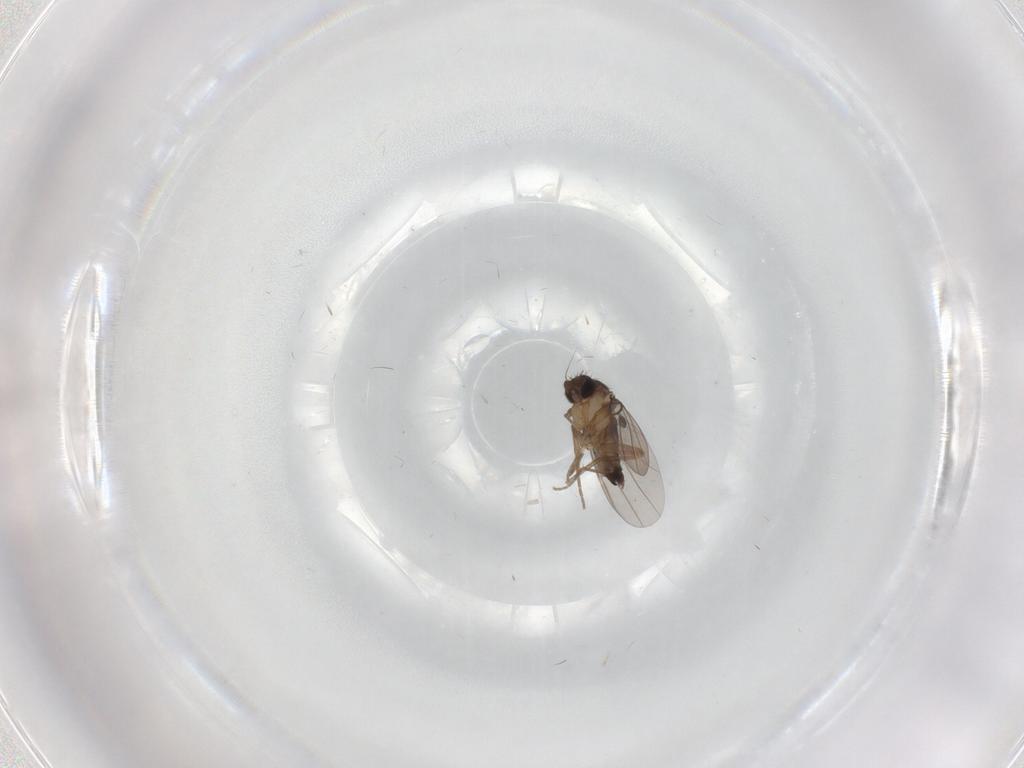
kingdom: Animalia
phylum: Arthropoda
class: Insecta
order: Diptera
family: Phoridae
